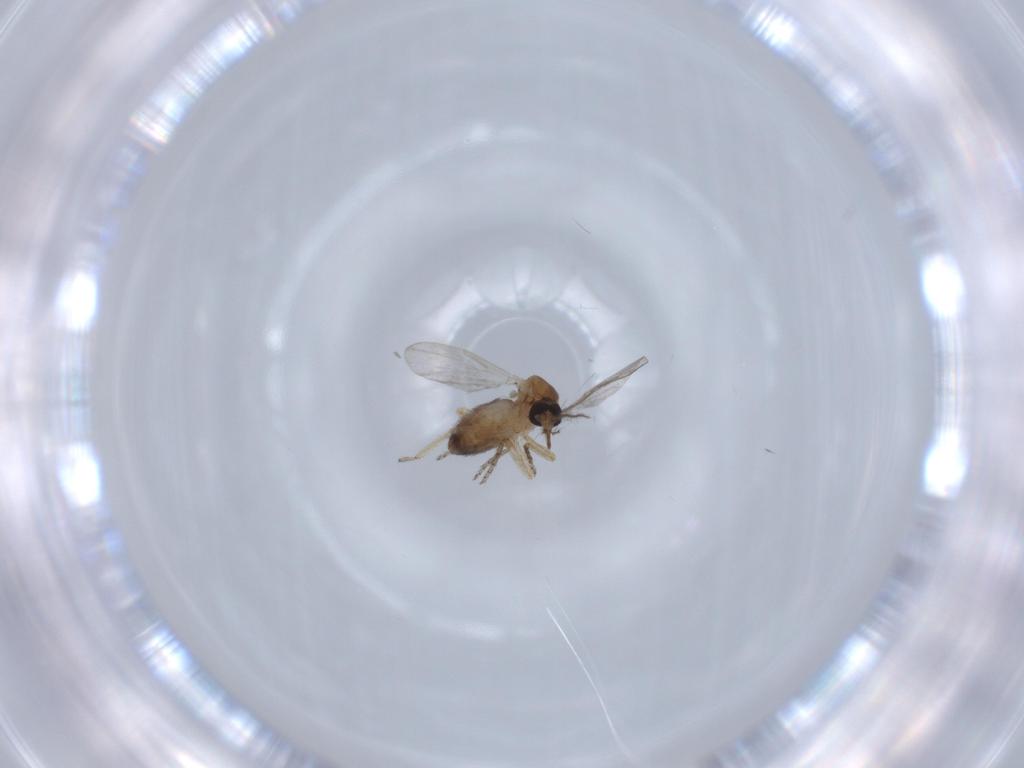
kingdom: Animalia
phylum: Arthropoda
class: Insecta
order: Diptera
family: Ceratopogonidae
